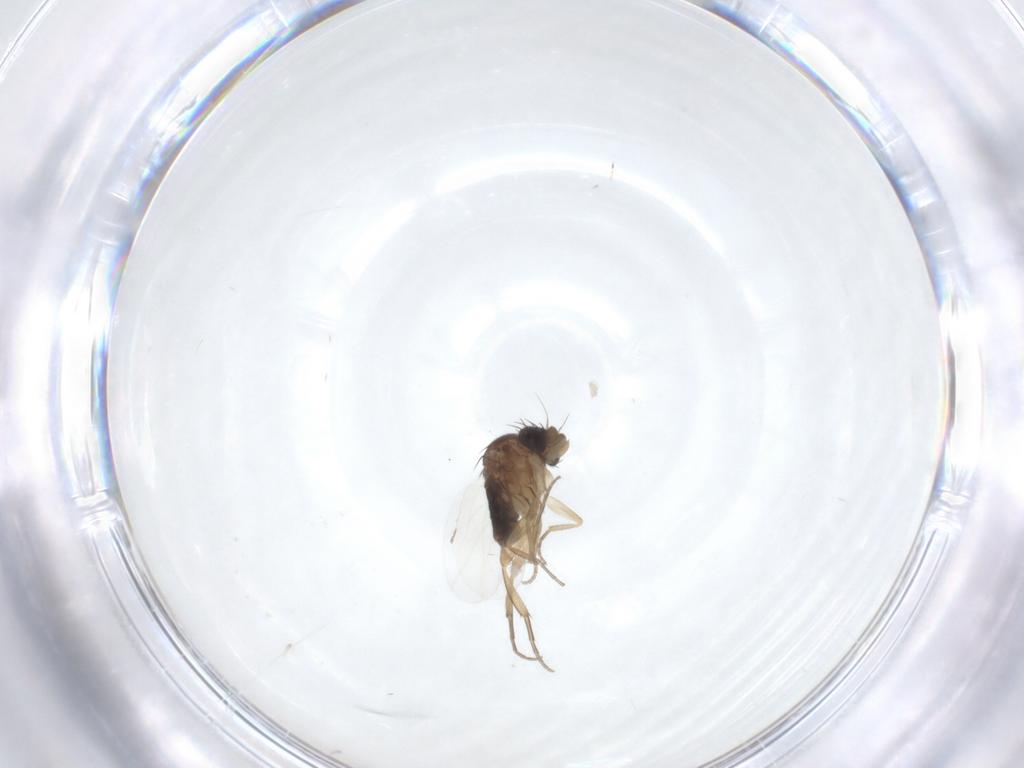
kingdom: Animalia
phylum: Arthropoda
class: Insecta
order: Diptera
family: Phoridae
